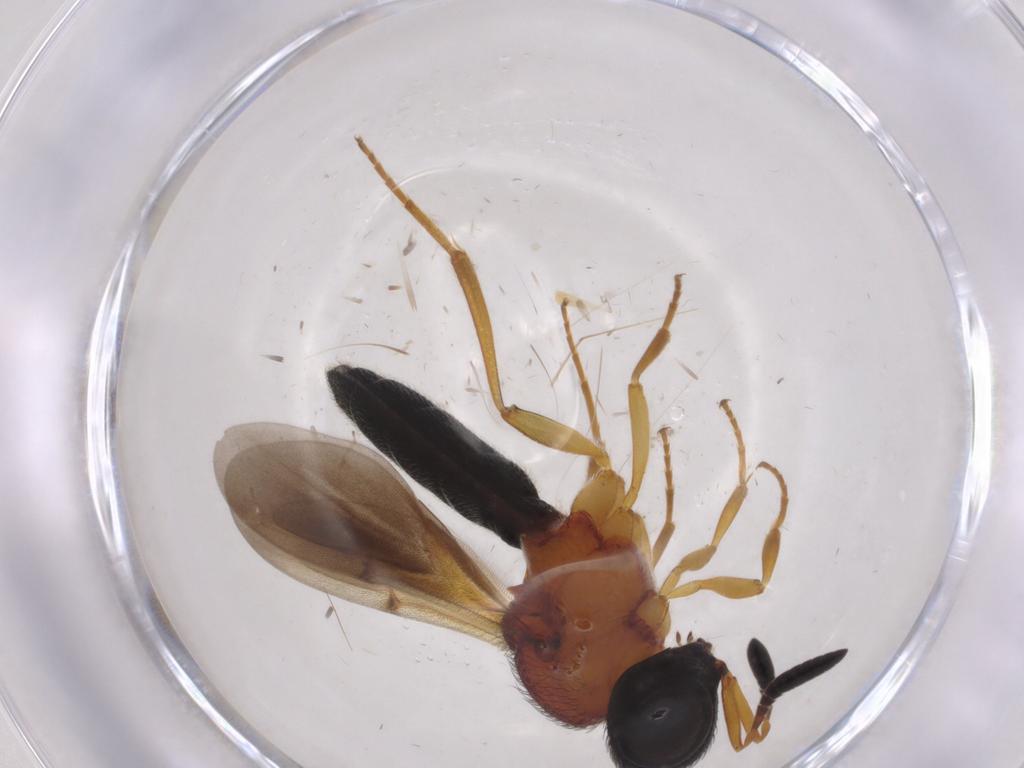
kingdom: Animalia
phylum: Arthropoda
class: Insecta
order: Hymenoptera
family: Scelionidae
